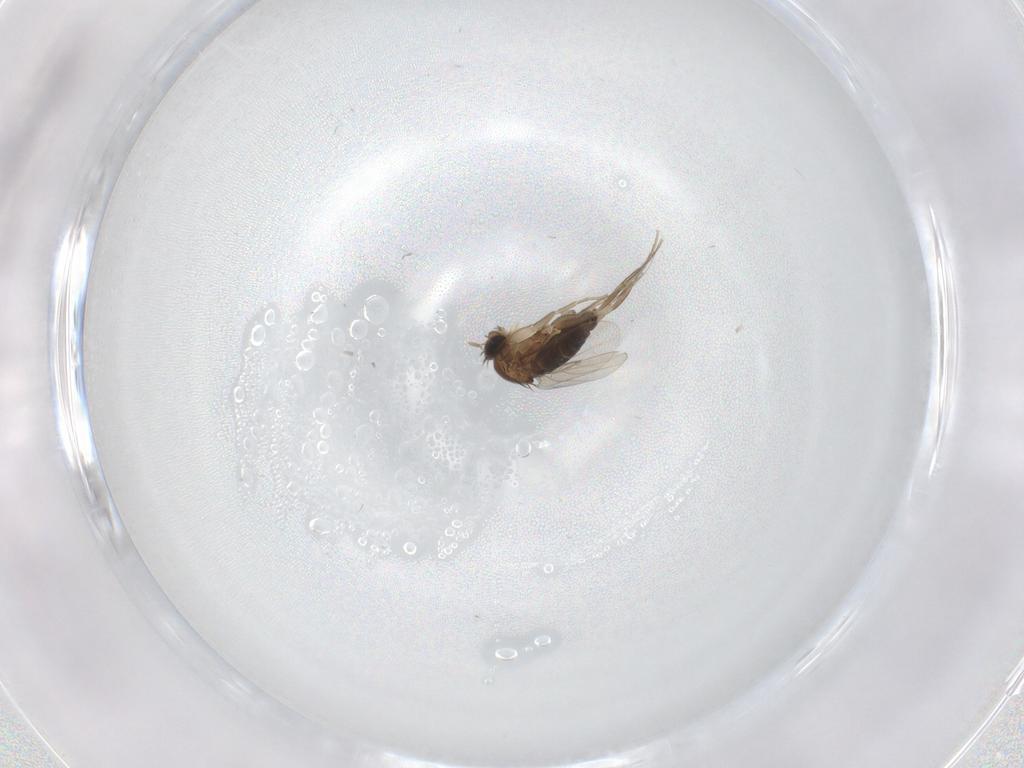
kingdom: Animalia
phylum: Arthropoda
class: Insecta
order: Diptera
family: Phoridae
